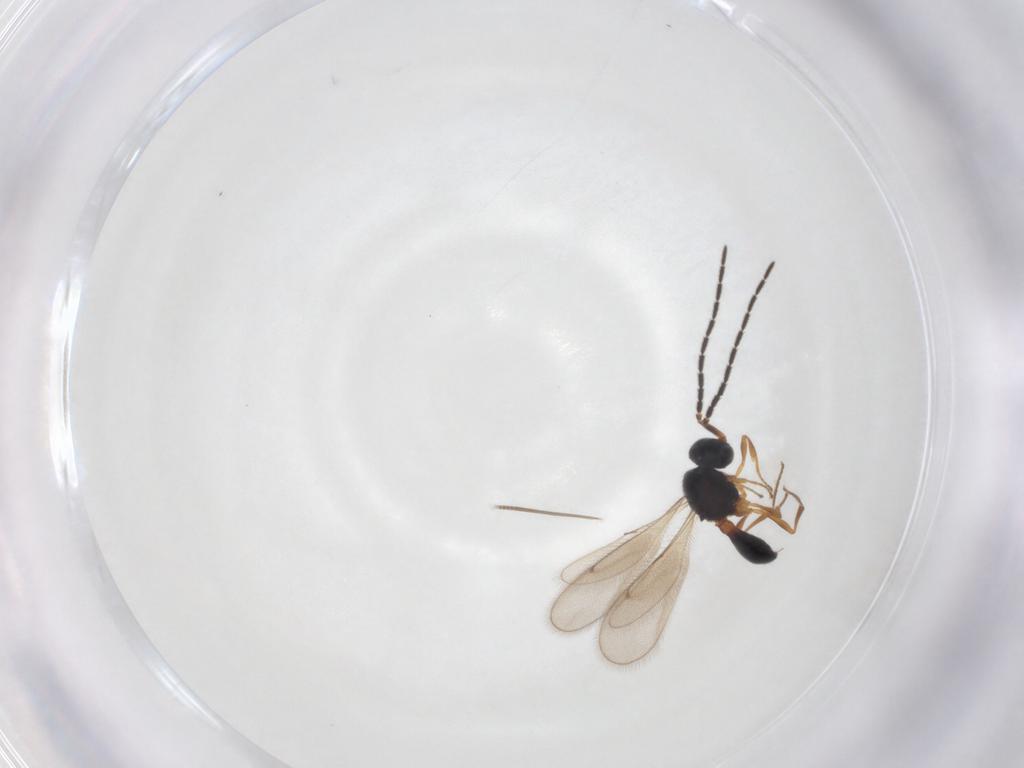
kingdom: Animalia
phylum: Arthropoda
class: Insecta
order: Hymenoptera
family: Scelionidae
